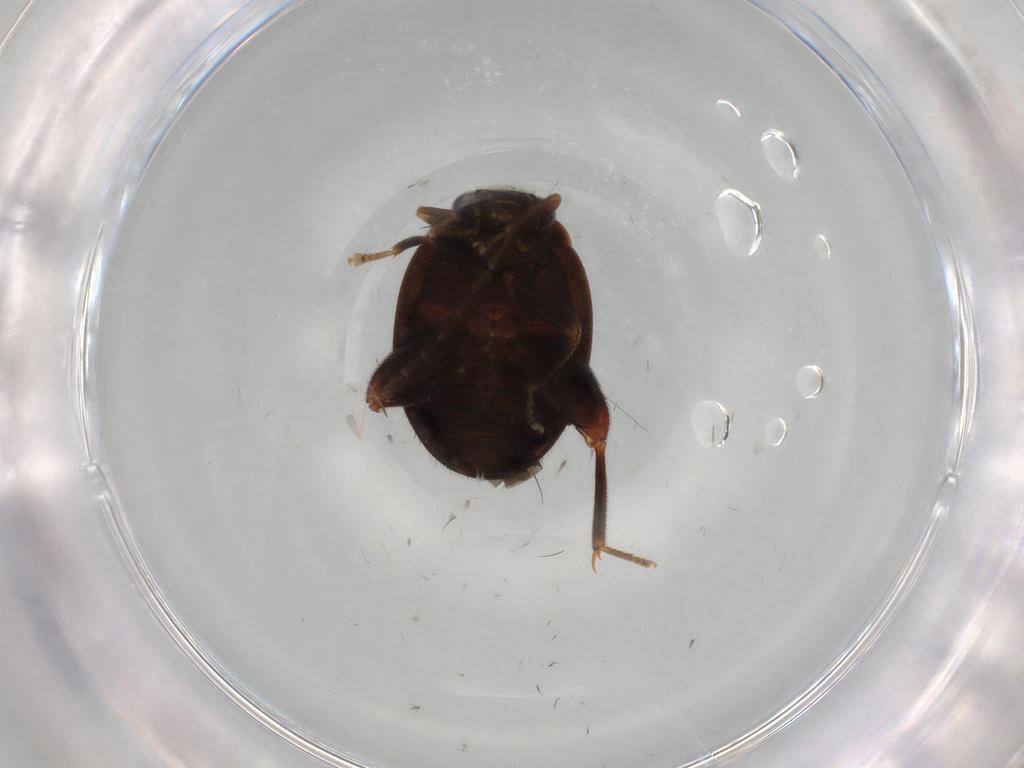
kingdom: Animalia
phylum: Arthropoda
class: Insecta
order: Coleoptera
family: Scirtidae
